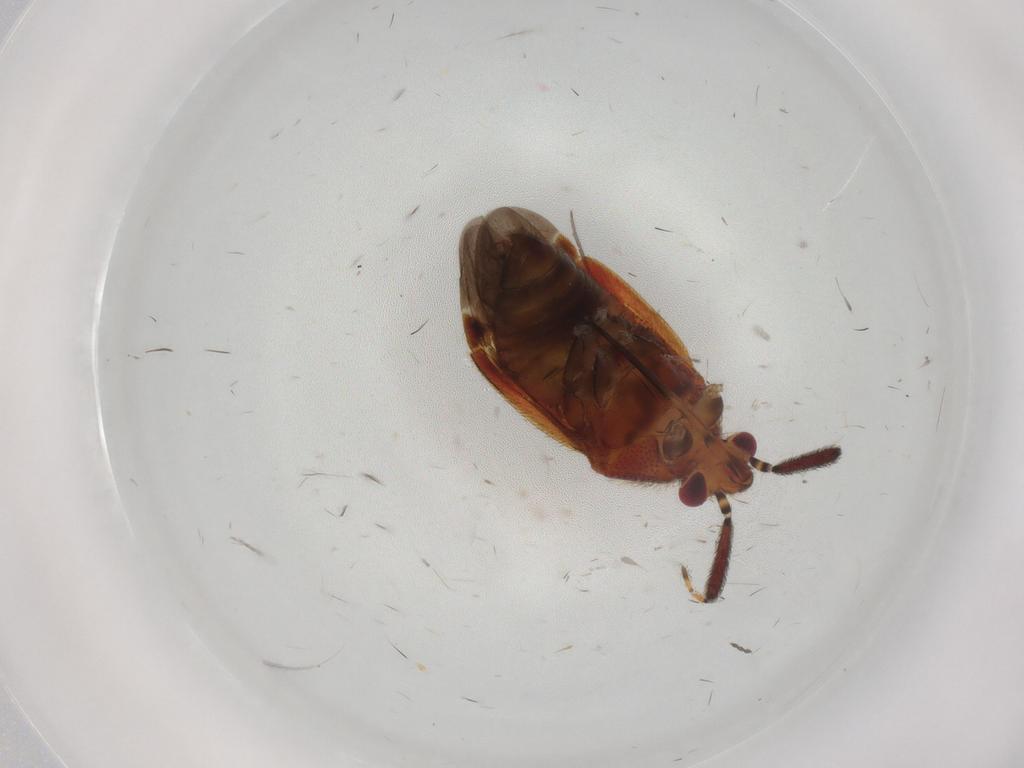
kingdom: Animalia
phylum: Arthropoda
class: Insecta
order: Hemiptera
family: Miridae
